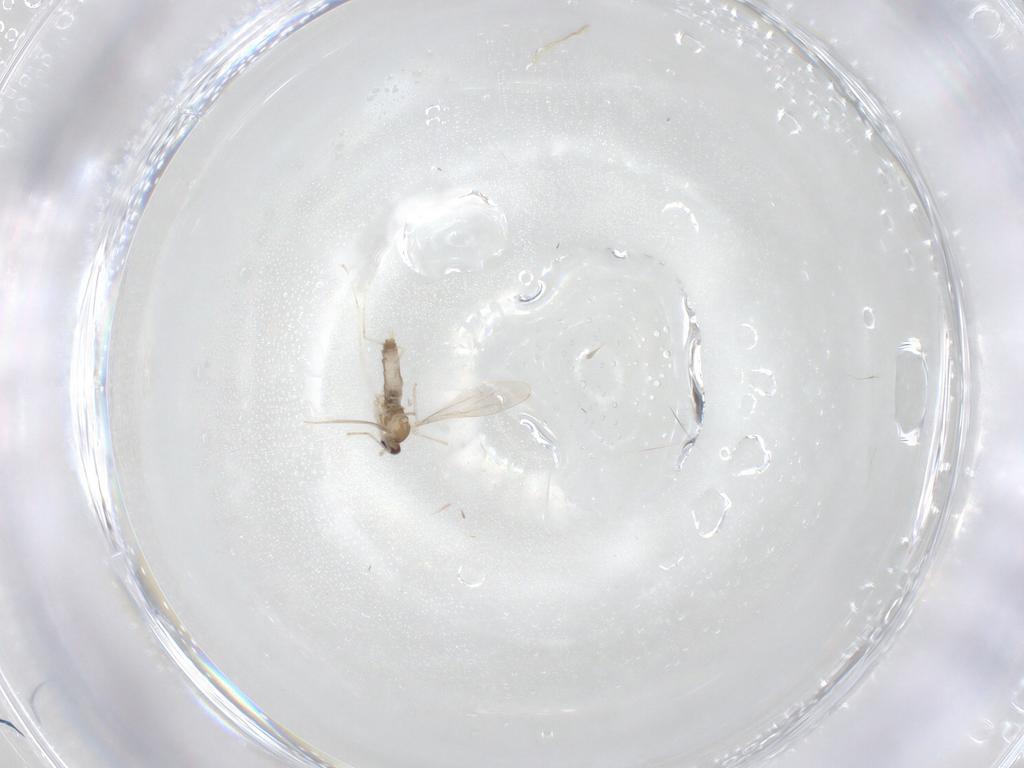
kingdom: Animalia
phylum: Arthropoda
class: Insecta
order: Diptera
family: Cecidomyiidae
